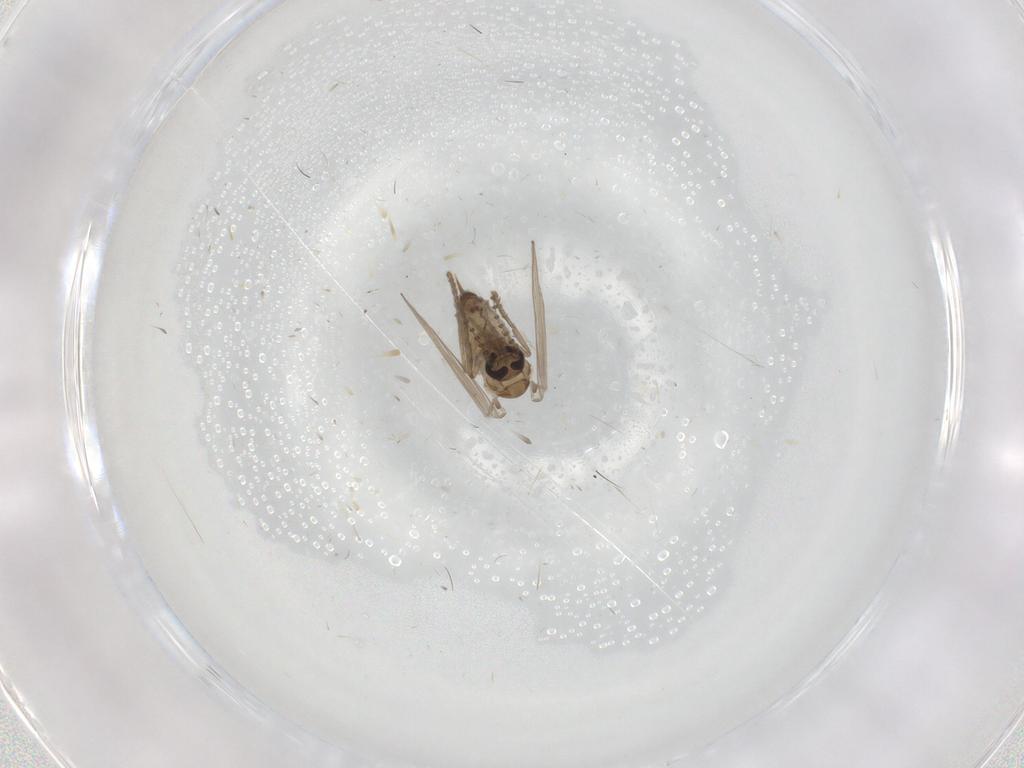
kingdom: Animalia
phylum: Arthropoda
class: Insecta
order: Diptera
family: Psychodidae
